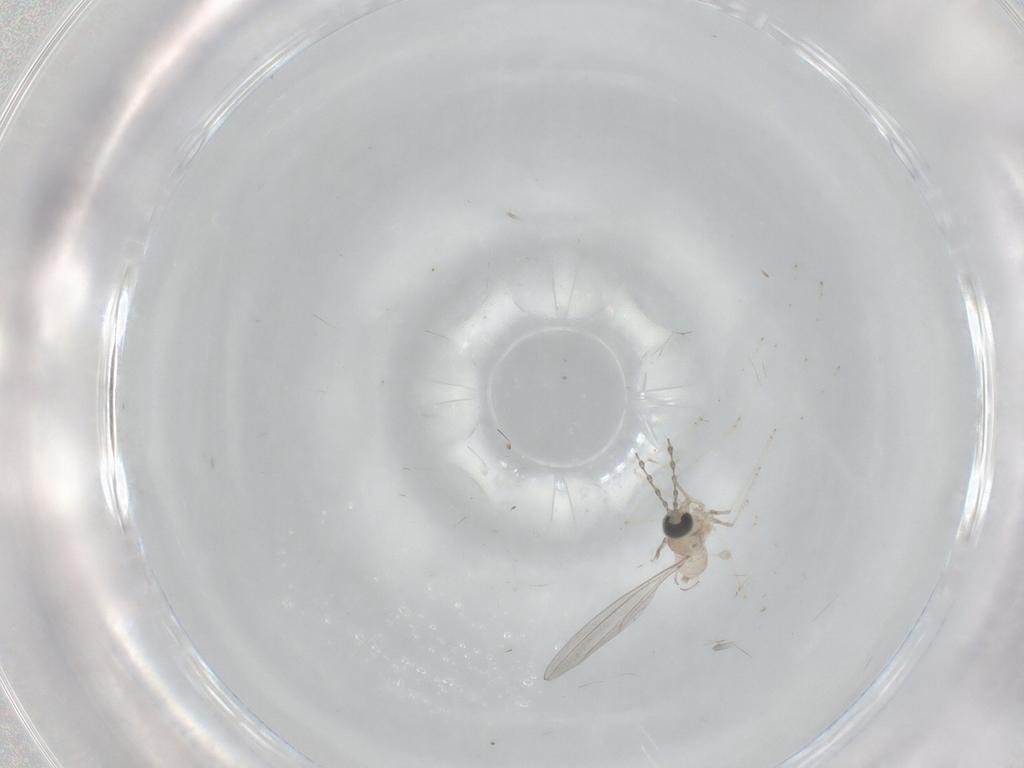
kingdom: Animalia
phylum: Arthropoda
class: Insecta
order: Diptera
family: Cecidomyiidae
